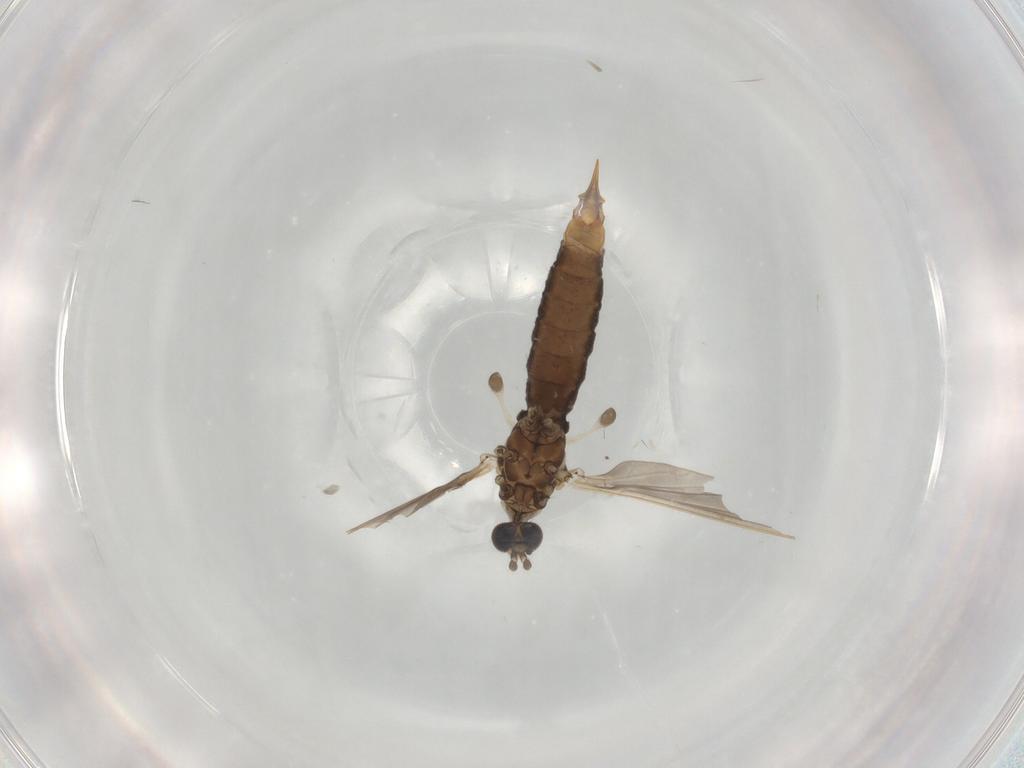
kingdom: Animalia
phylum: Arthropoda
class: Insecta
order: Diptera
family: Limoniidae
